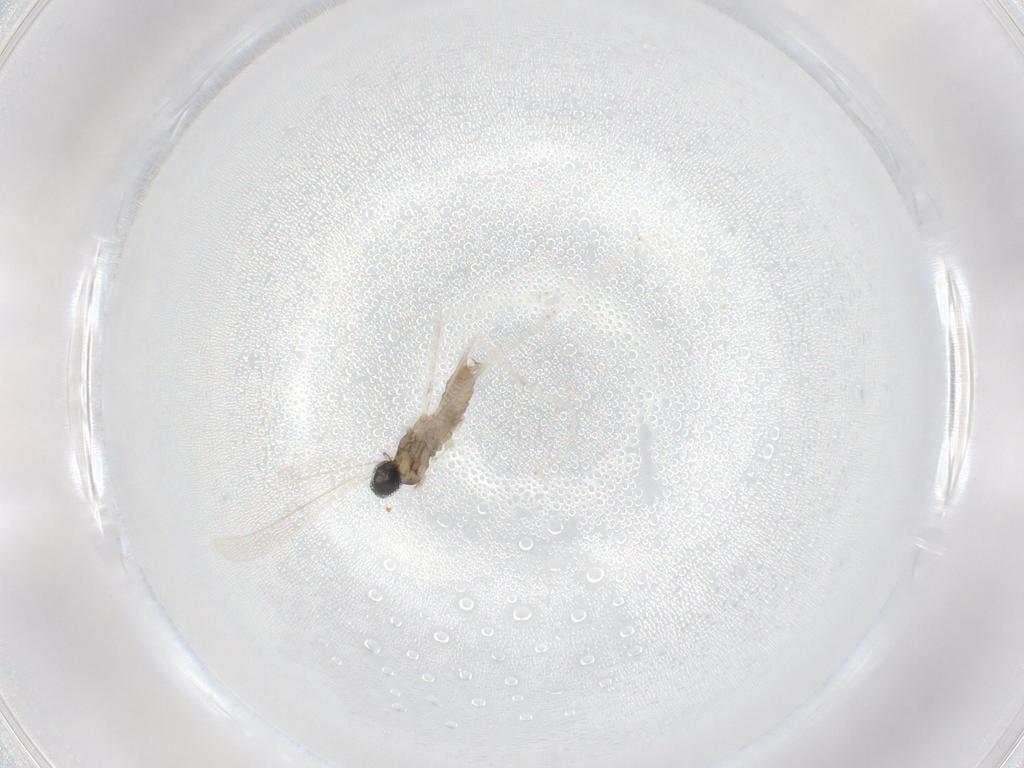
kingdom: Animalia
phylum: Arthropoda
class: Insecta
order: Diptera
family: Cecidomyiidae
